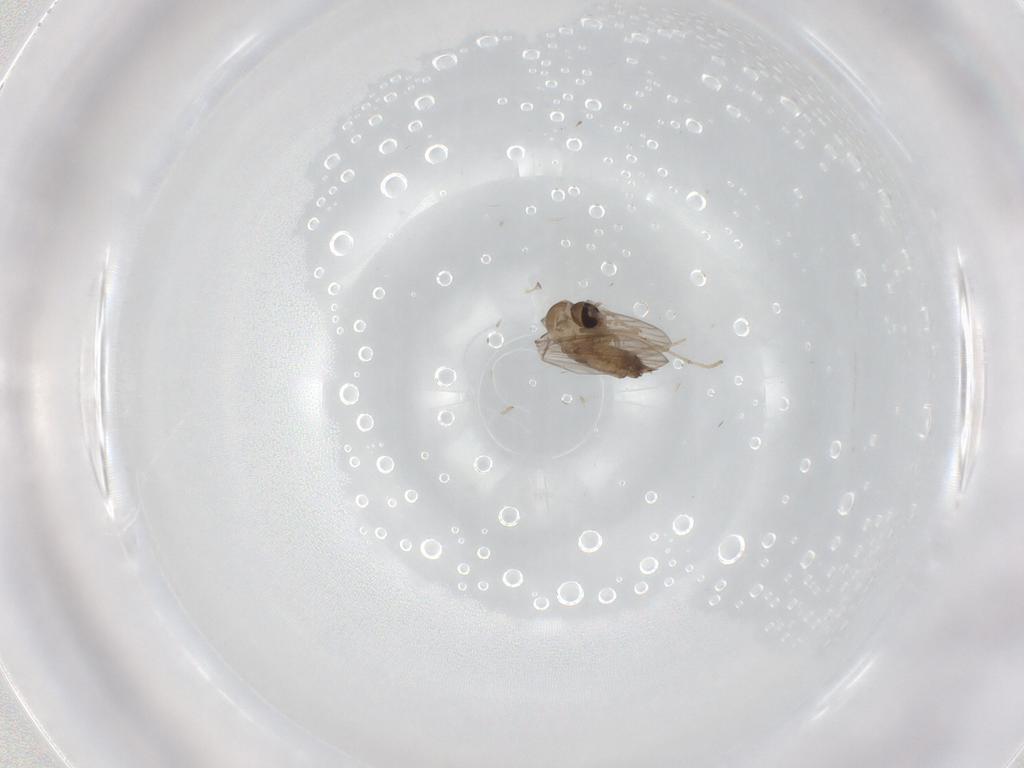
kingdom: Animalia
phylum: Arthropoda
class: Insecta
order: Diptera
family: Psychodidae
